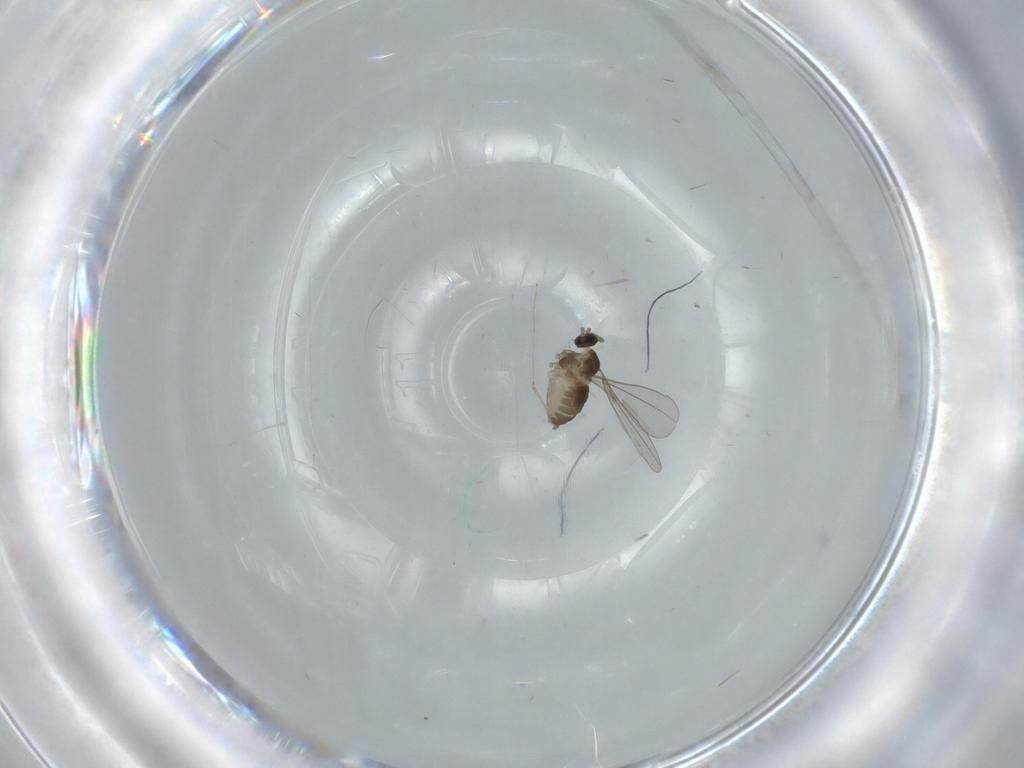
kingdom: Animalia
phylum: Arthropoda
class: Insecta
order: Diptera
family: Cecidomyiidae
